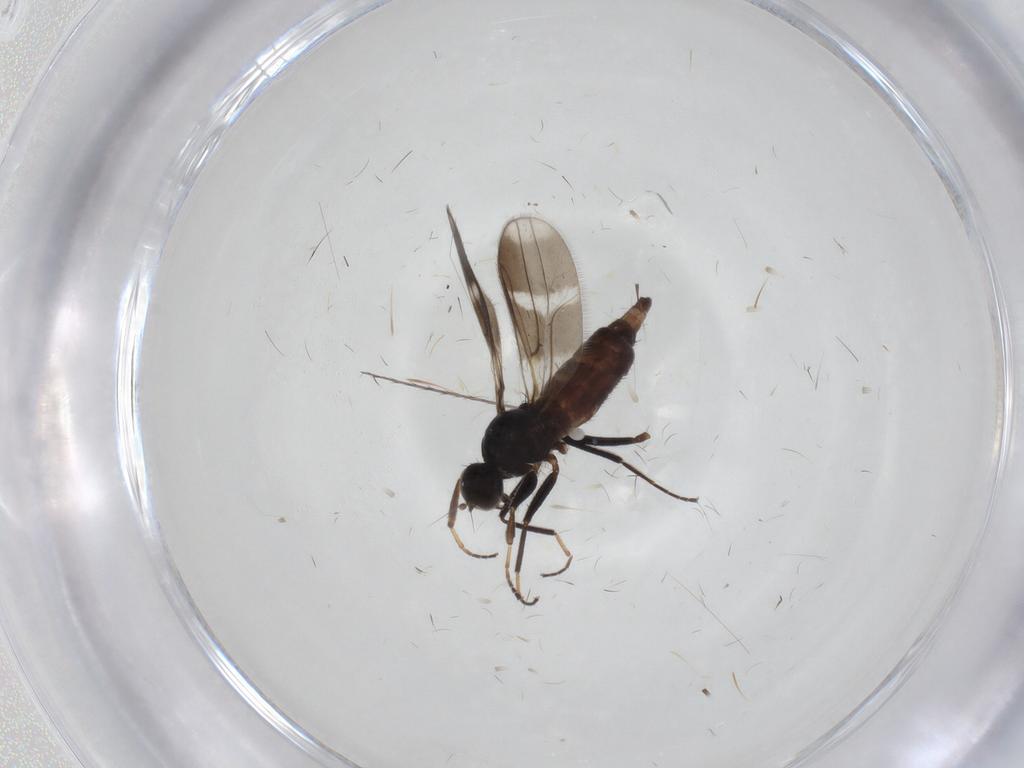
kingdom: Animalia
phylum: Arthropoda
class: Insecta
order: Diptera
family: Hybotidae
